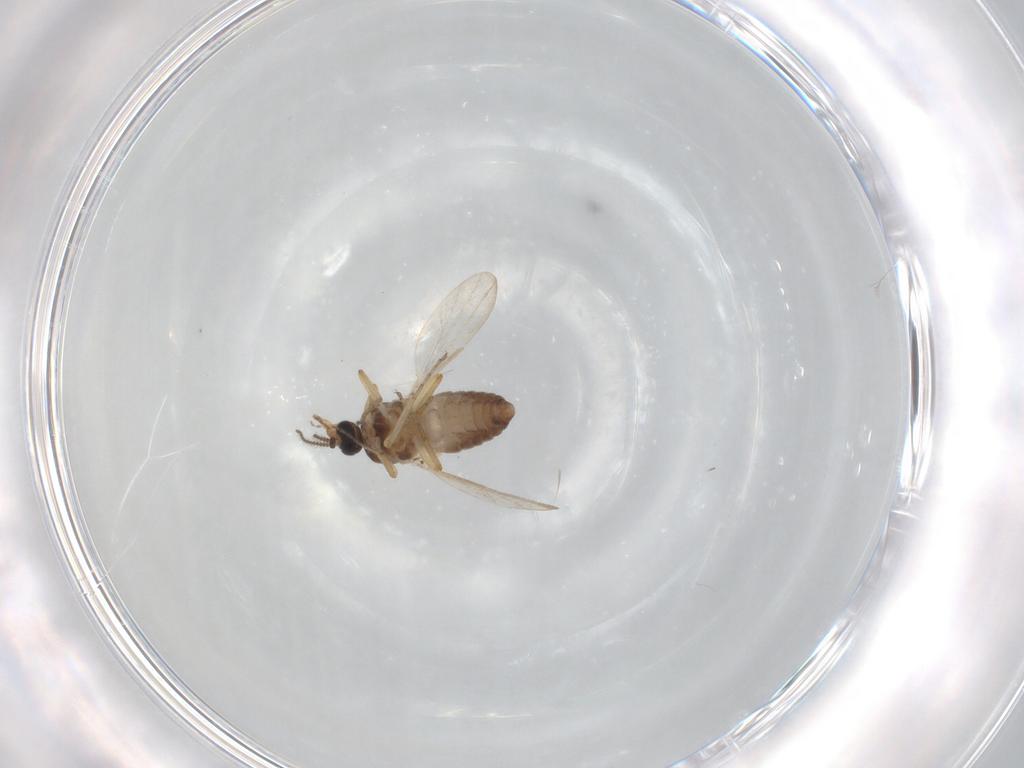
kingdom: Animalia
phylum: Arthropoda
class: Insecta
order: Diptera
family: Ceratopogonidae
